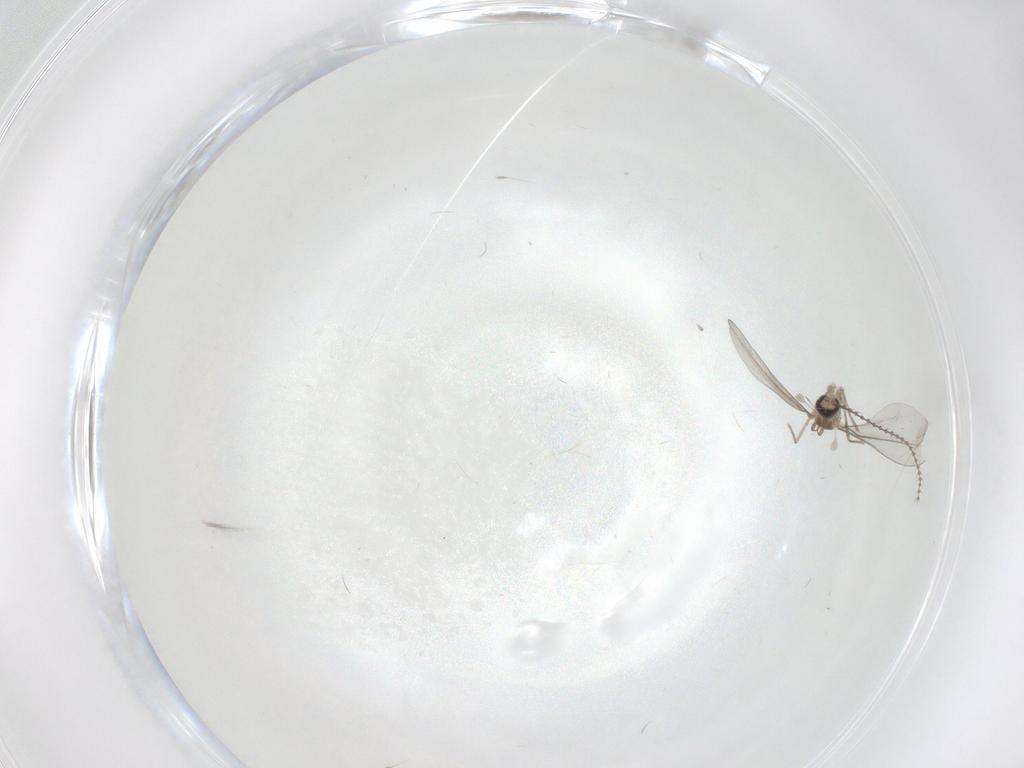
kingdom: Animalia
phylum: Arthropoda
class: Insecta
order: Diptera
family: Cecidomyiidae
